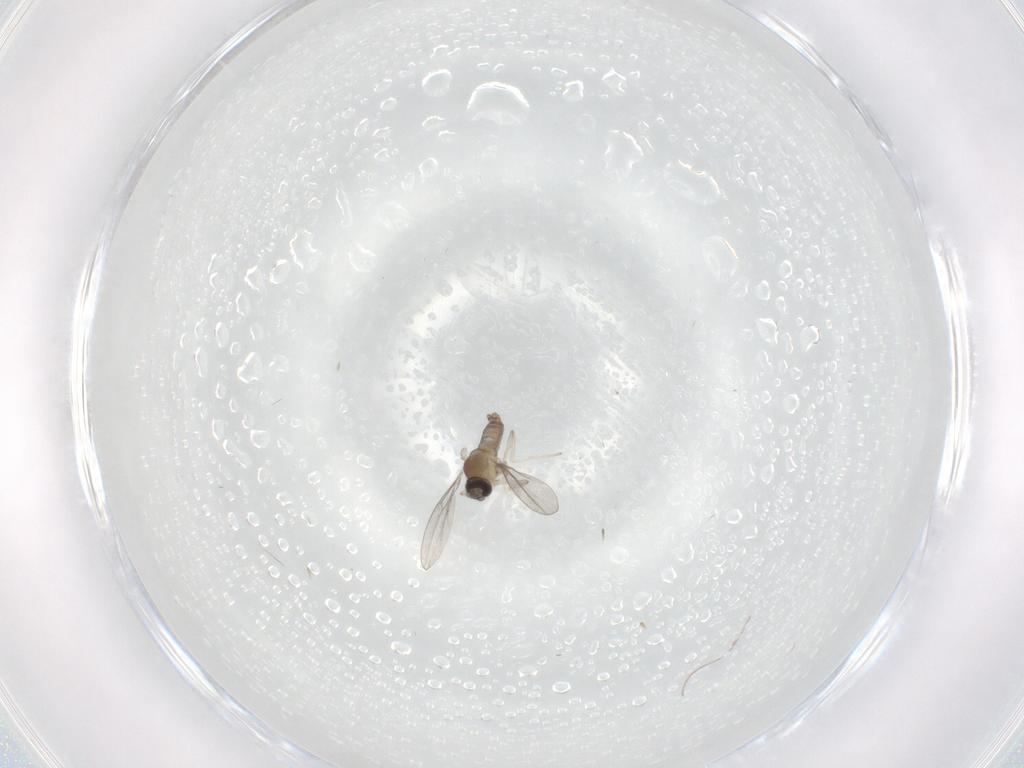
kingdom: Animalia
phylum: Arthropoda
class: Insecta
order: Diptera
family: Cecidomyiidae
